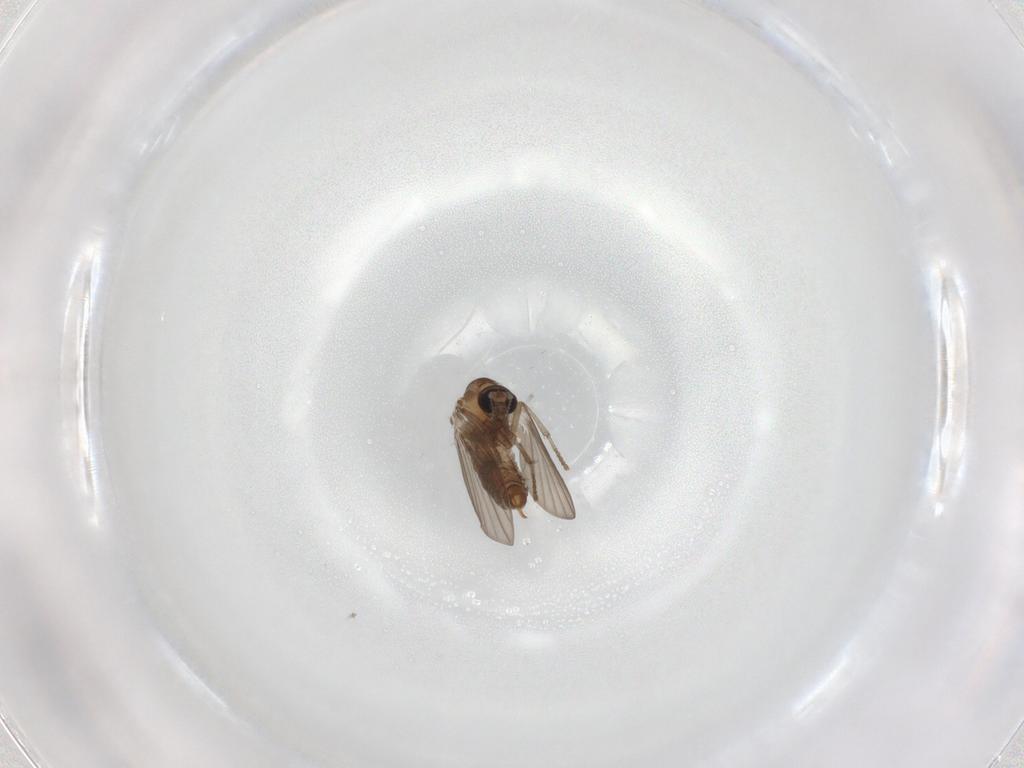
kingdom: Animalia
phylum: Arthropoda
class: Insecta
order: Diptera
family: Psychodidae
